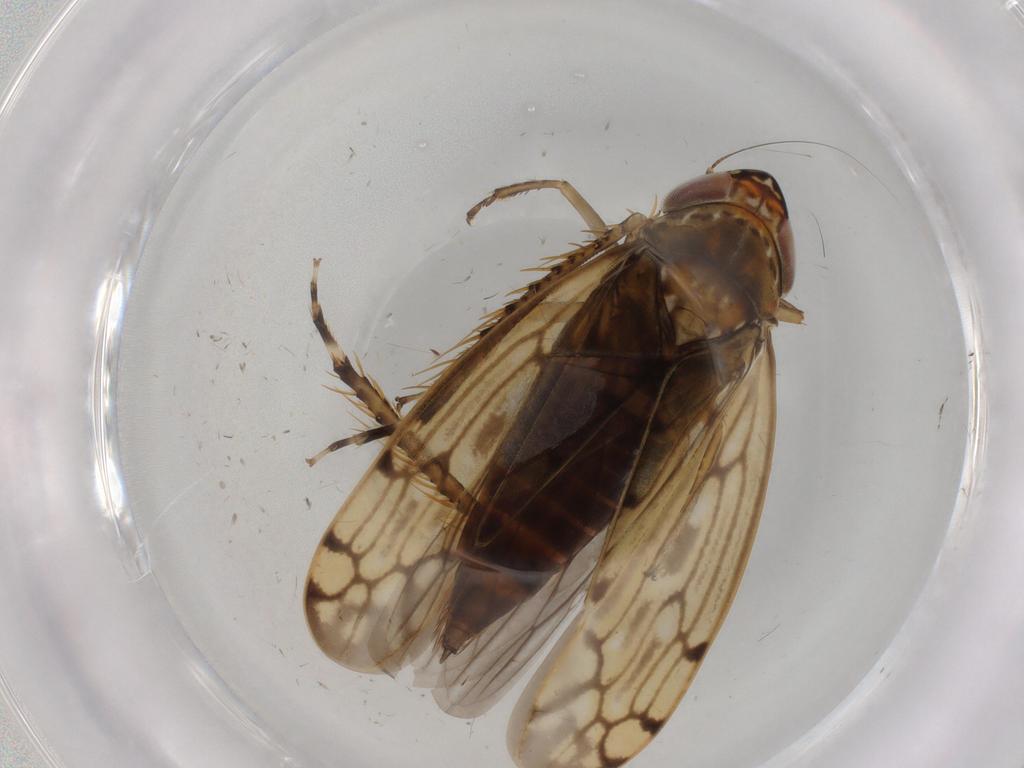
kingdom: Animalia
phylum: Arthropoda
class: Insecta
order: Hemiptera
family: Cicadellidae
